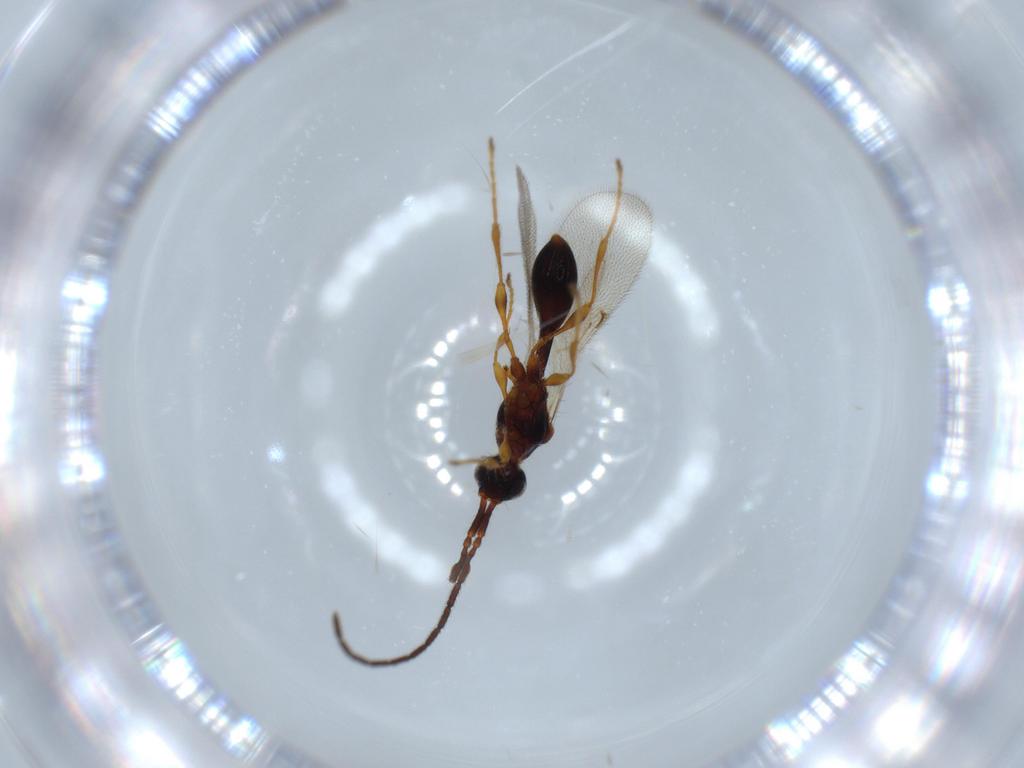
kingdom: Animalia
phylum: Arthropoda
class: Insecta
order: Hymenoptera
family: Diapriidae
